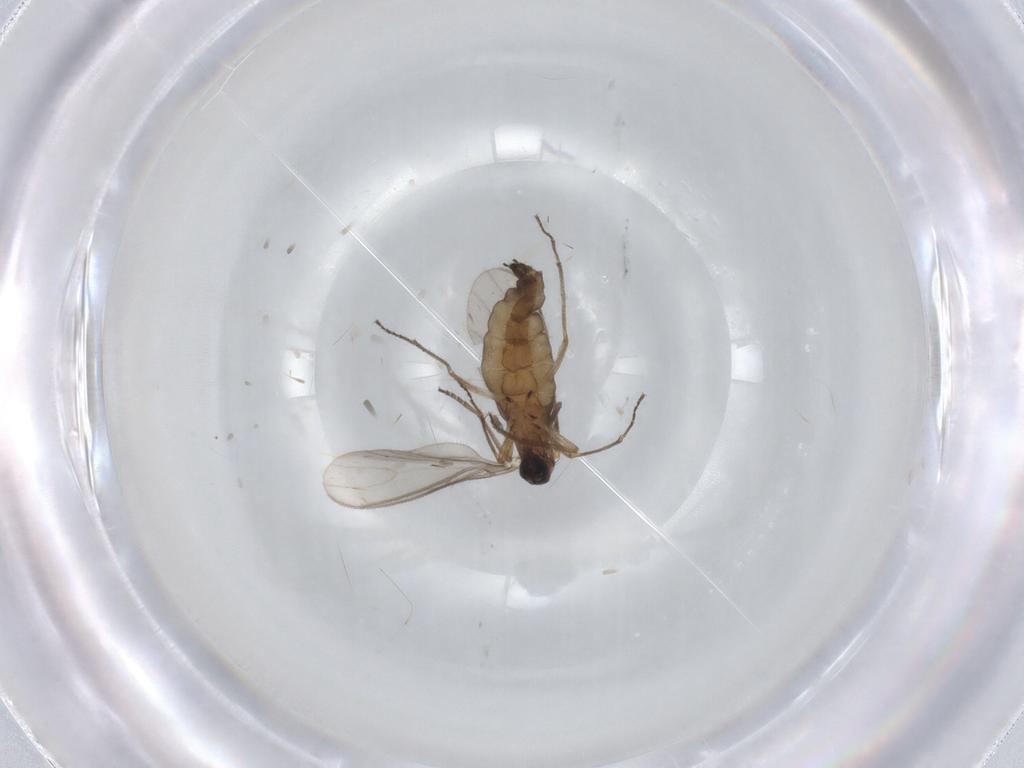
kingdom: Animalia
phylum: Arthropoda
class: Insecta
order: Diptera
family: Sciaridae
